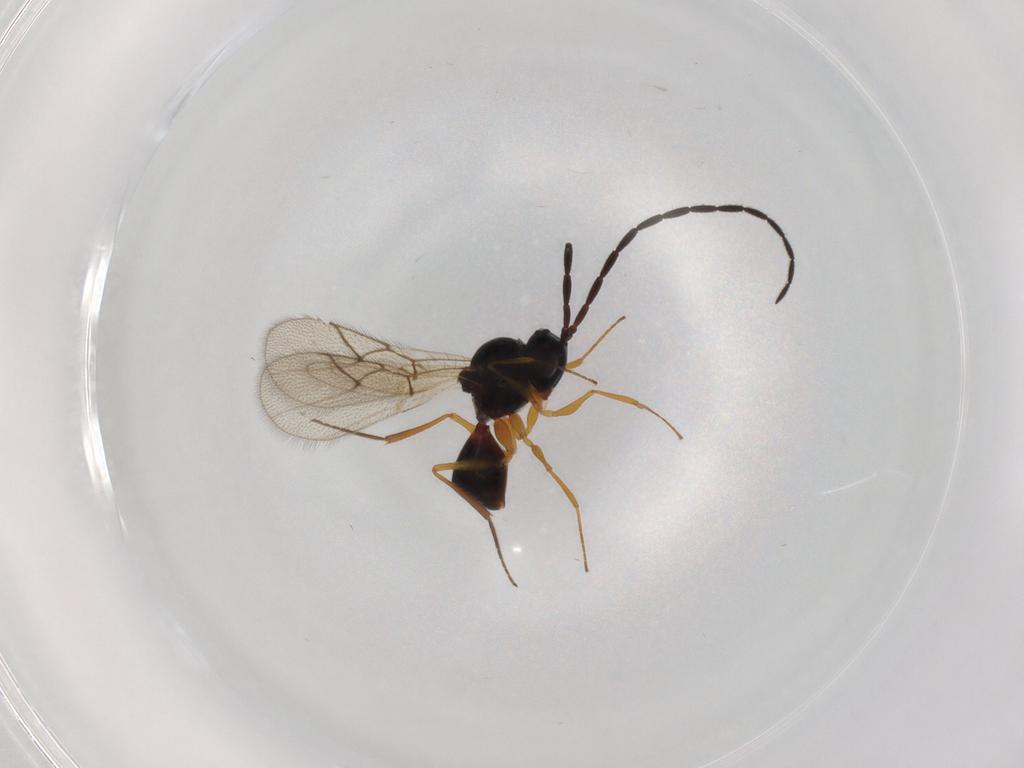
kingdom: Animalia
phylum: Arthropoda
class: Insecta
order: Hymenoptera
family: Figitidae
